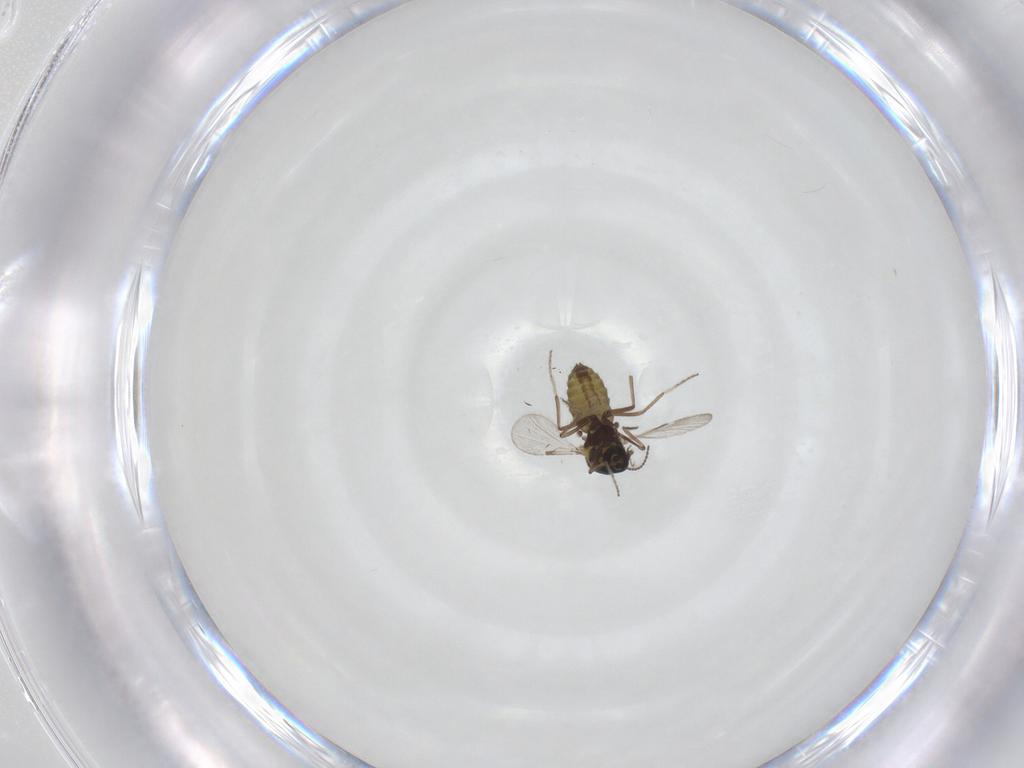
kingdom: Animalia
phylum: Arthropoda
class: Insecta
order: Diptera
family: Ceratopogonidae
